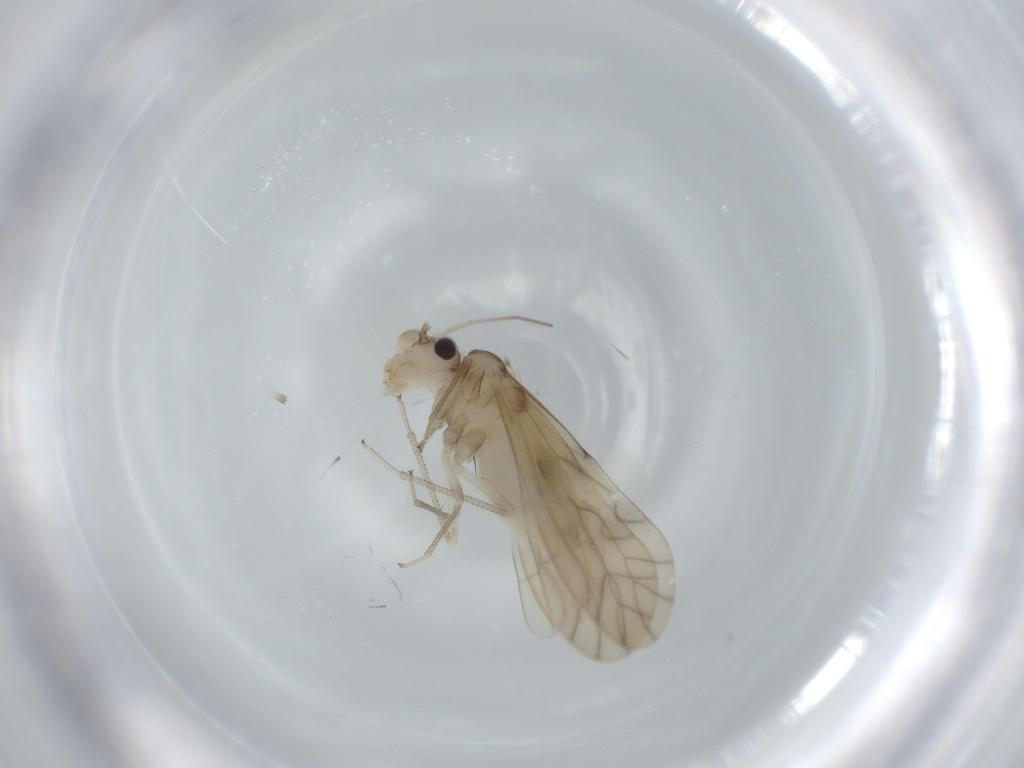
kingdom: Animalia
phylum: Arthropoda
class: Insecta
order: Psocodea
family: Caeciliusidae
